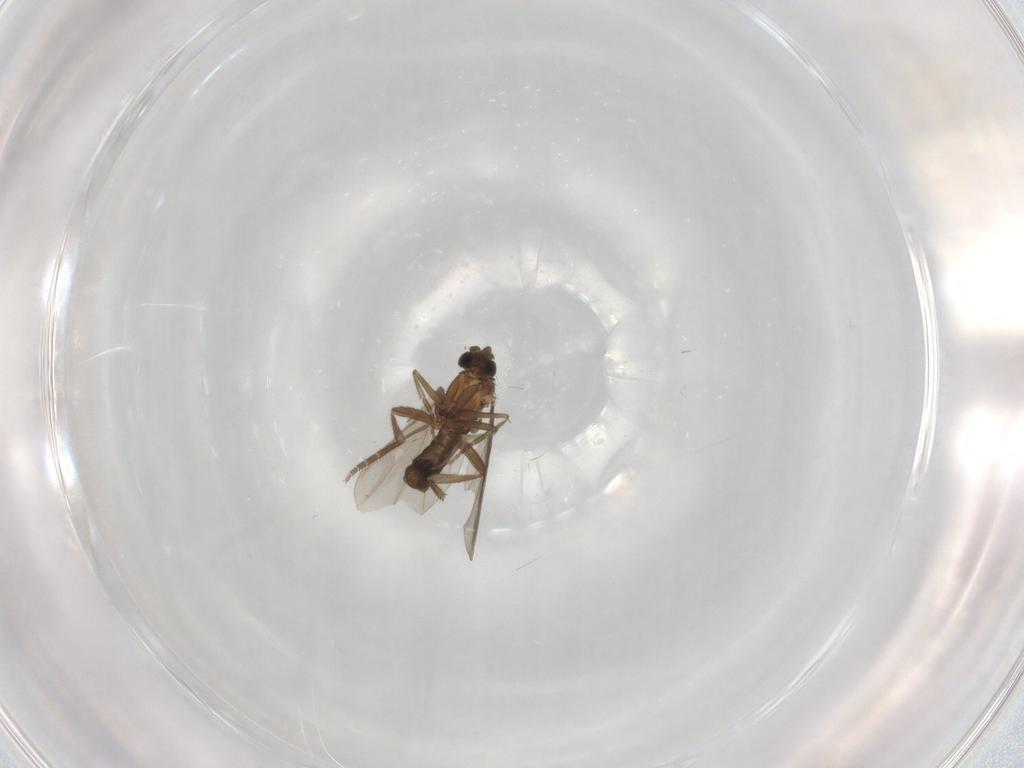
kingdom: Animalia
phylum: Arthropoda
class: Insecta
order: Diptera
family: Phoridae
